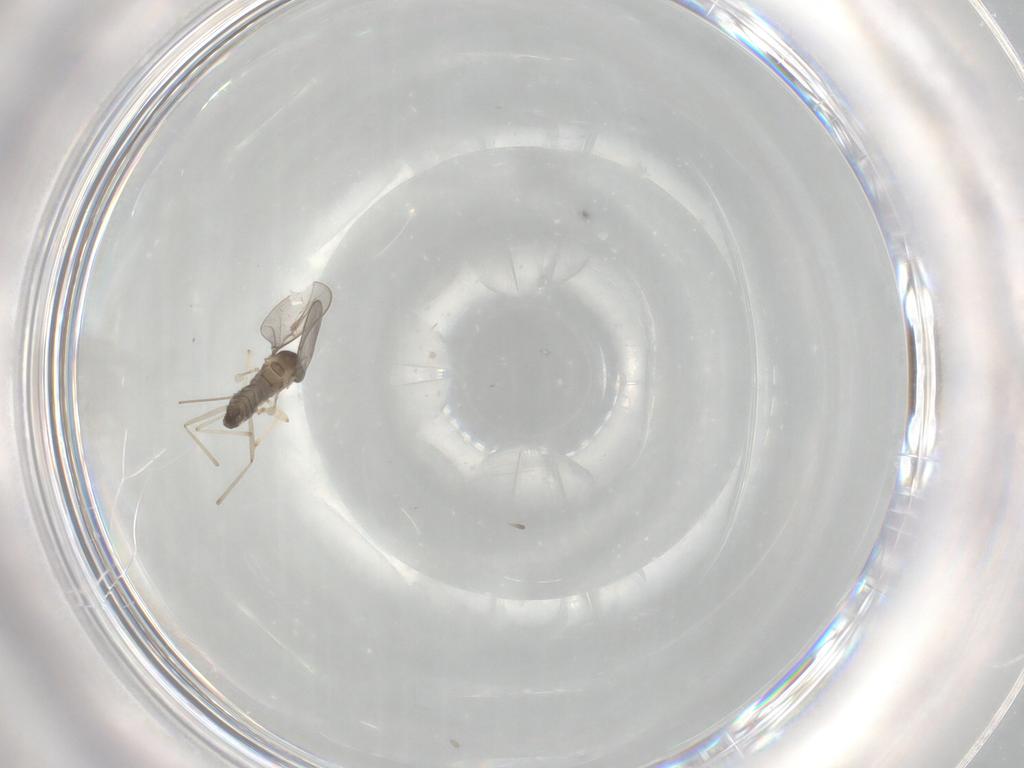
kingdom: Animalia
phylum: Arthropoda
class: Insecta
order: Diptera
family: Cecidomyiidae
